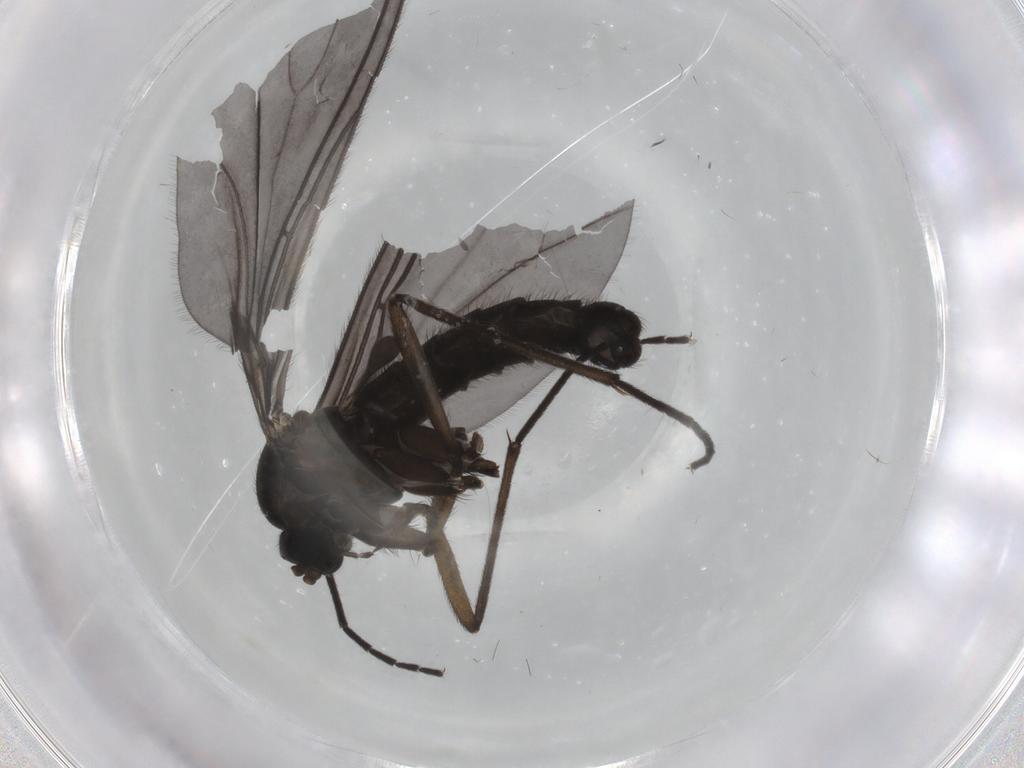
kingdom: Animalia
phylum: Arthropoda
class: Insecta
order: Diptera
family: Sciaridae
